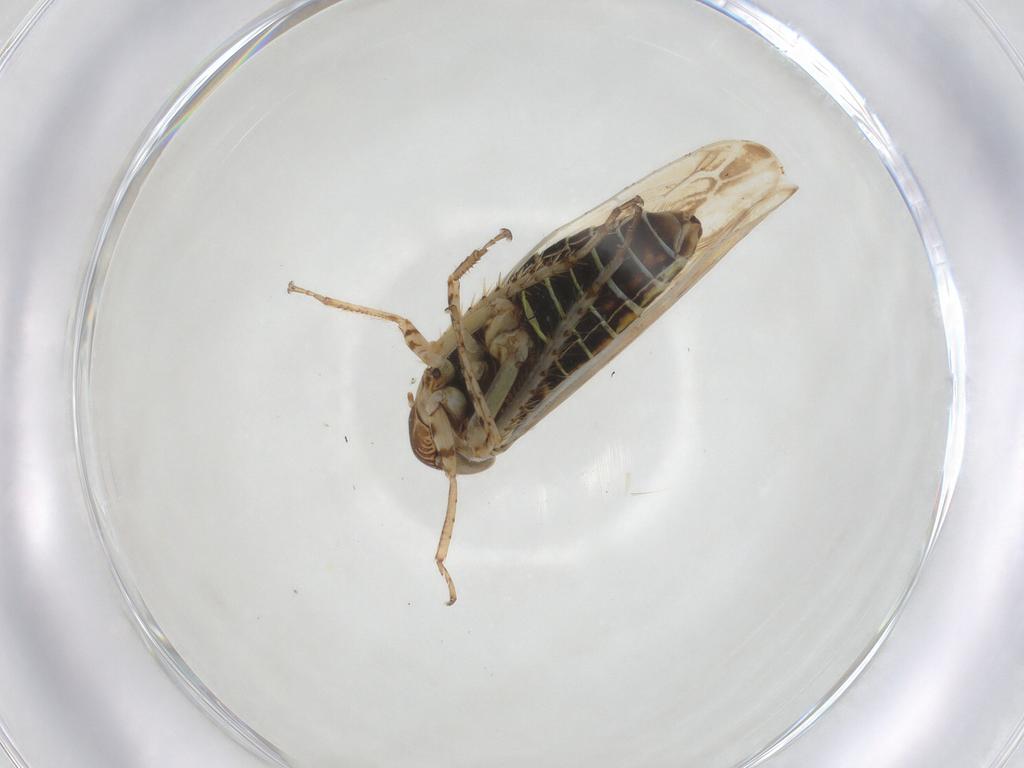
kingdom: Animalia
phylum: Arthropoda
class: Insecta
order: Hemiptera
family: Cicadellidae
